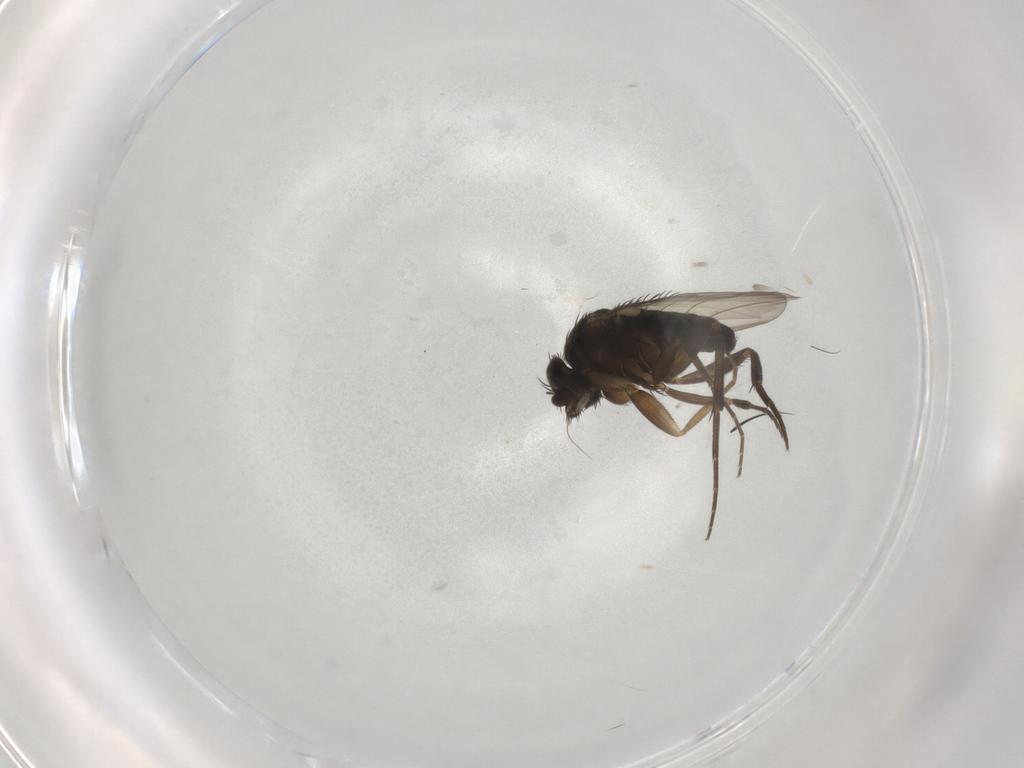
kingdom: Animalia
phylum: Arthropoda
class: Insecta
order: Diptera
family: Phoridae
